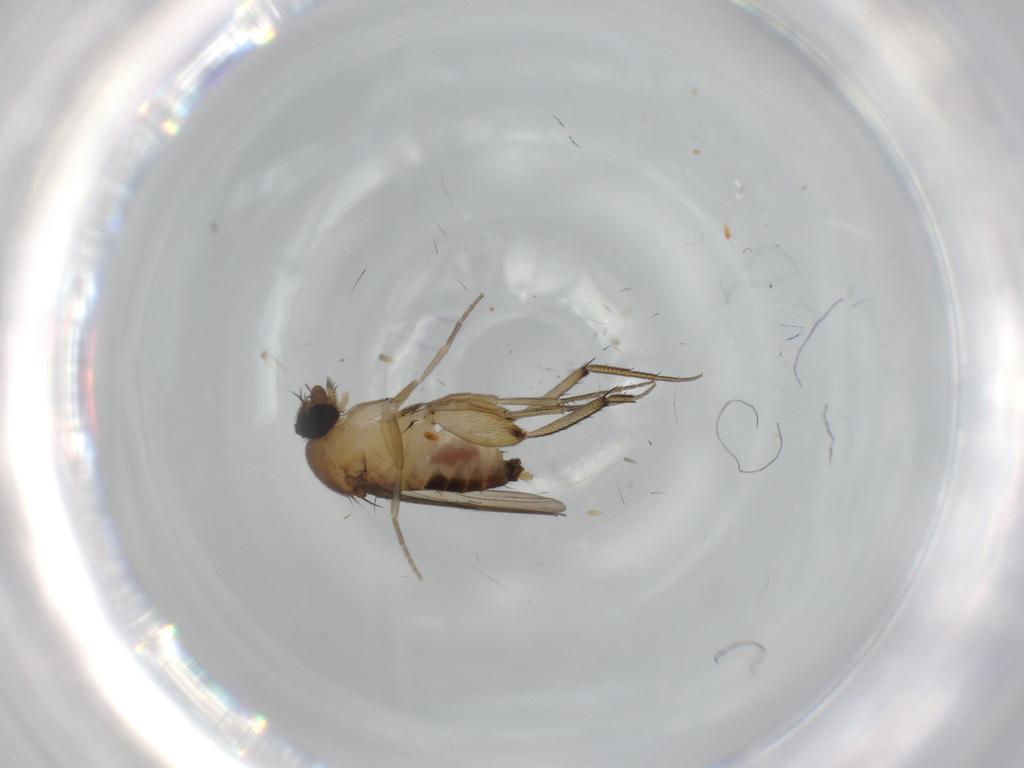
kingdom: Animalia
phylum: Arthropoda
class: Insecta
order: Diptera
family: Phoridae
